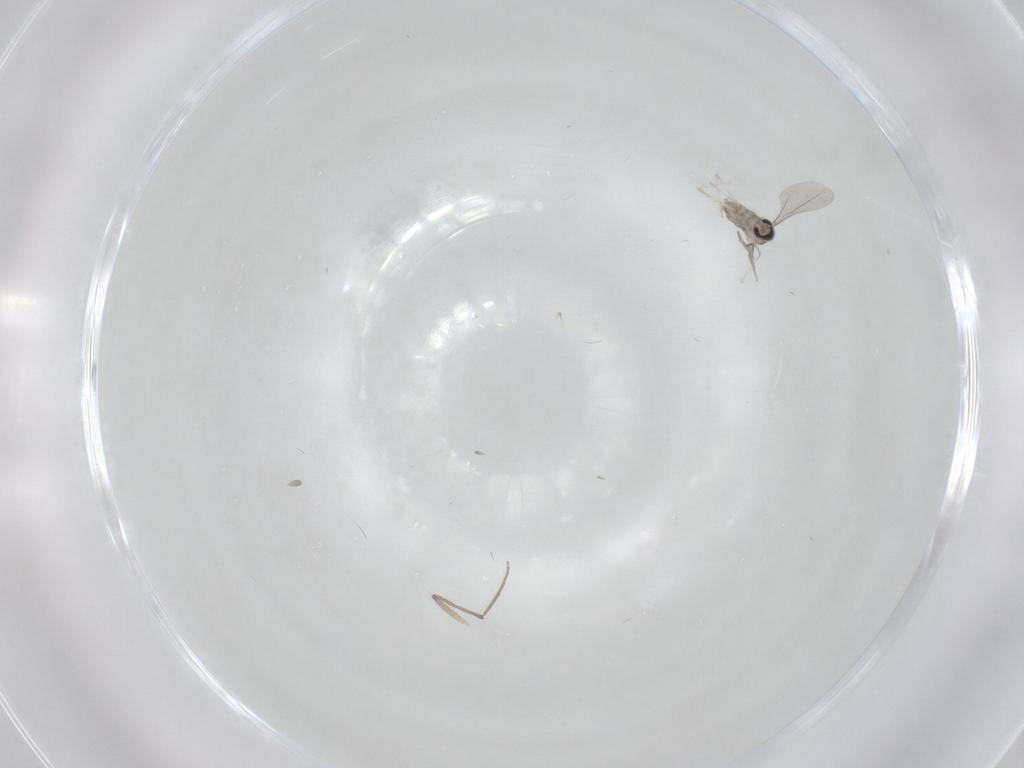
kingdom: Animalia
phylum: Arthropoda
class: Insecta
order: Diptera
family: Cecidomyiidae
